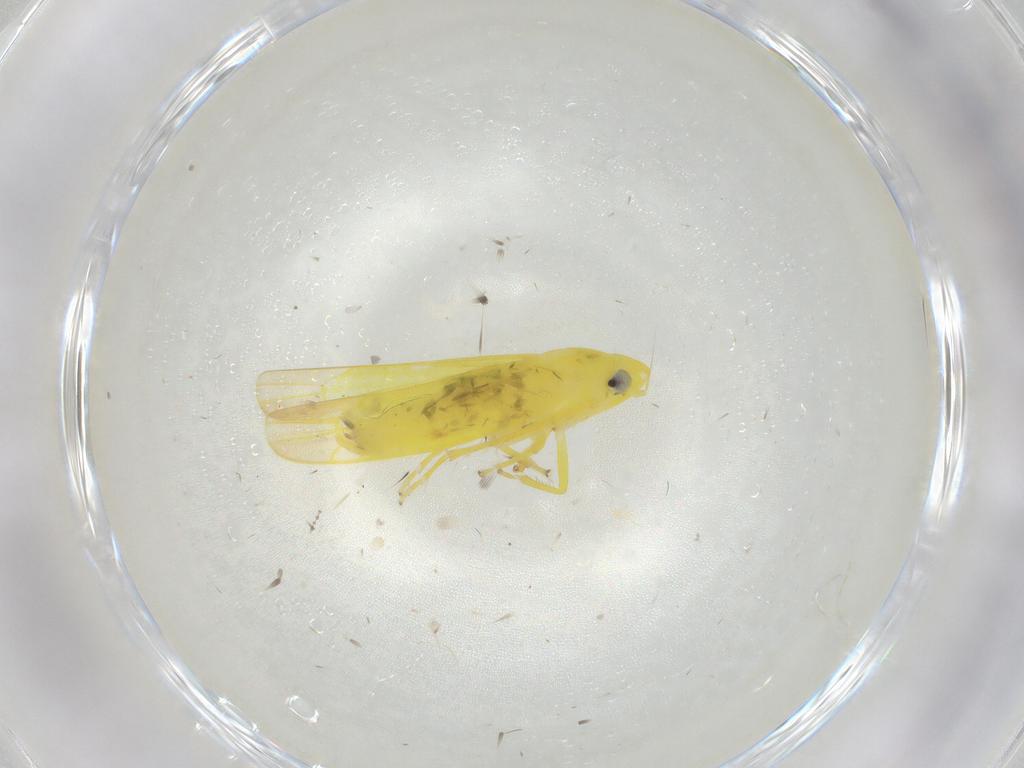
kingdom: Animalia
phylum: Arthropoda
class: Insecta
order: Hemiptera
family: Cicadellidae
